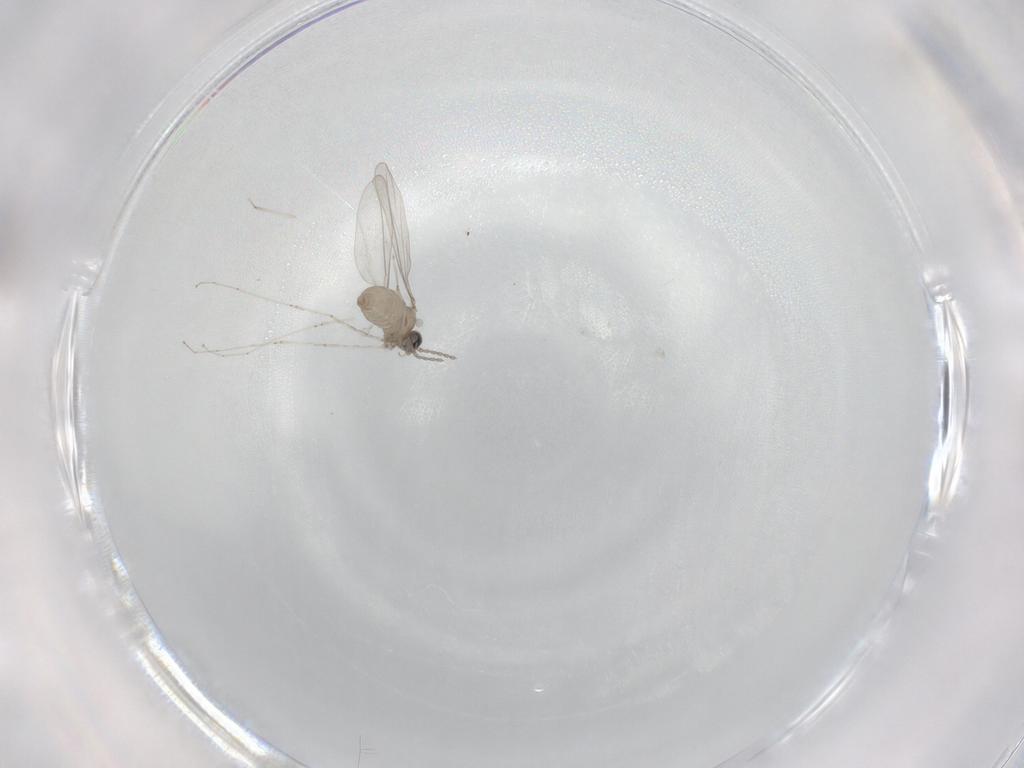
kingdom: Animalia
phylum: Arthropoda
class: Insecta
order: Diptera
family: Cecidomyiidae
